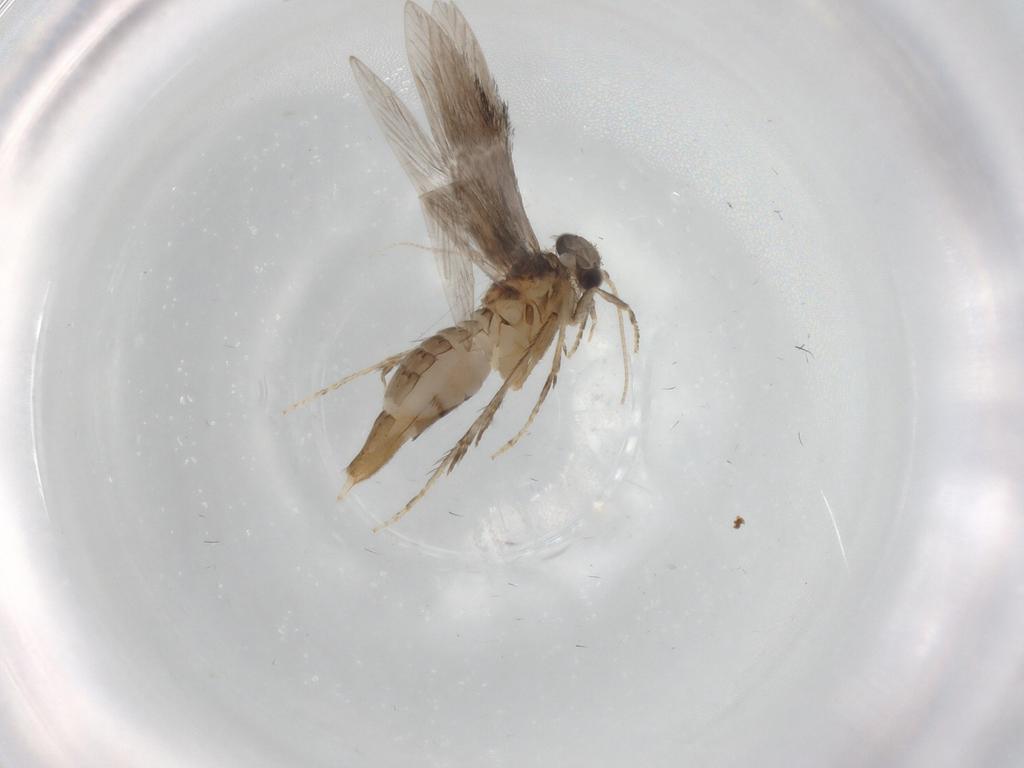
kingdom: Animalia
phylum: Arthropoda
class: Insecta
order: Trichoptera
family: Hydroptilidae
